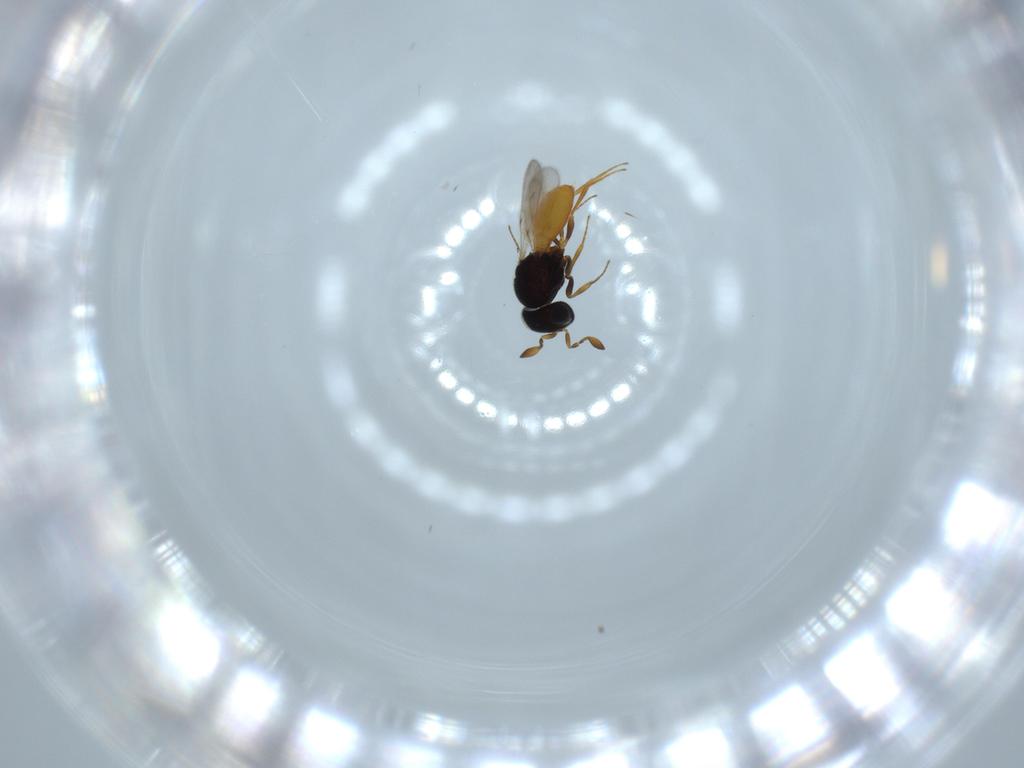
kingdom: Animalia
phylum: Arthropoda
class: Insecta
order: Hymenoptera
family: Scelionidae
